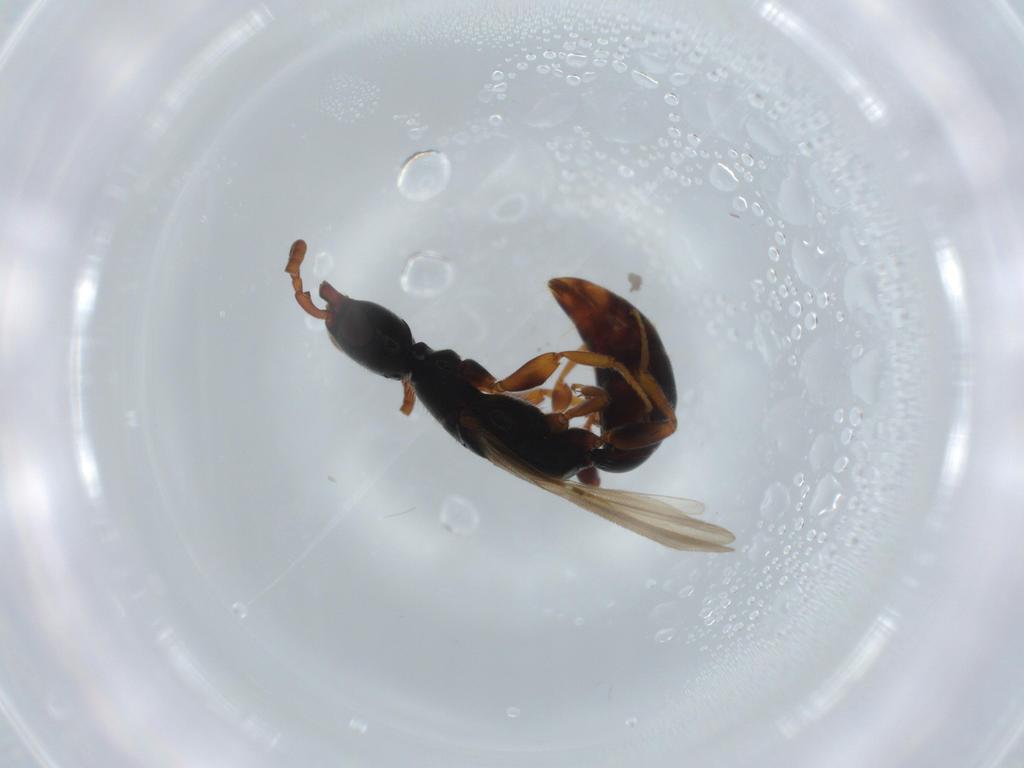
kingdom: Animalia
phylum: Arthropoda
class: Insecta
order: Hymenoptera
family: Bethylidae
